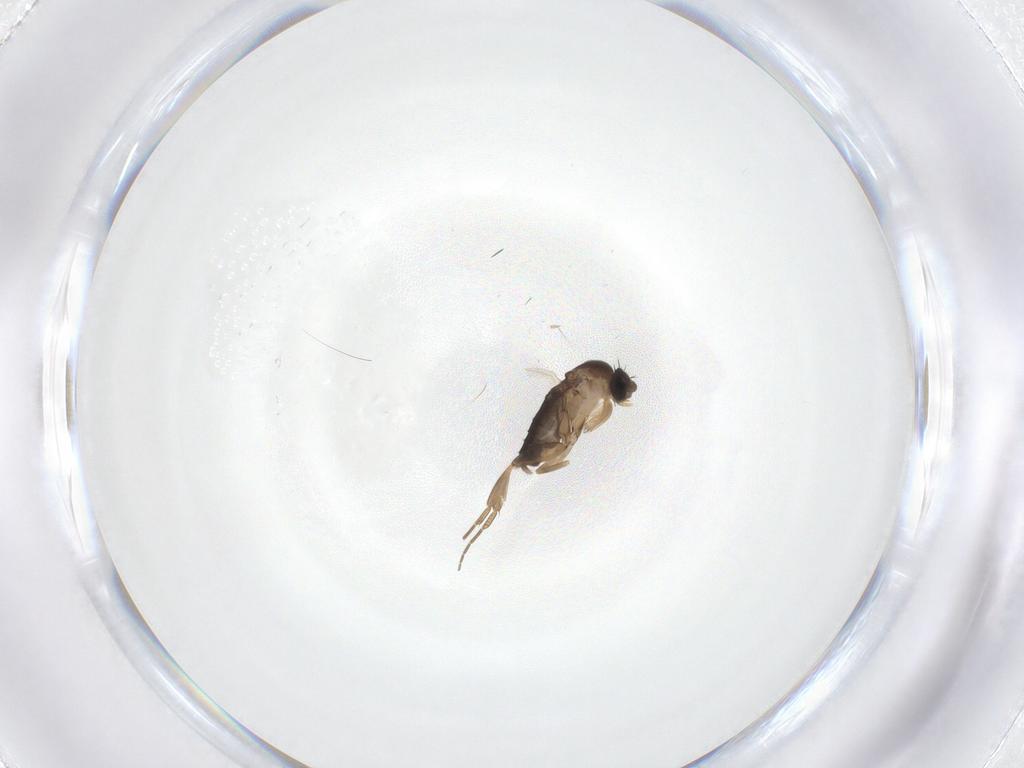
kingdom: Animalia
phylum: Arthropoda
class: Insecta
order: Diptera
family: Phoridae
